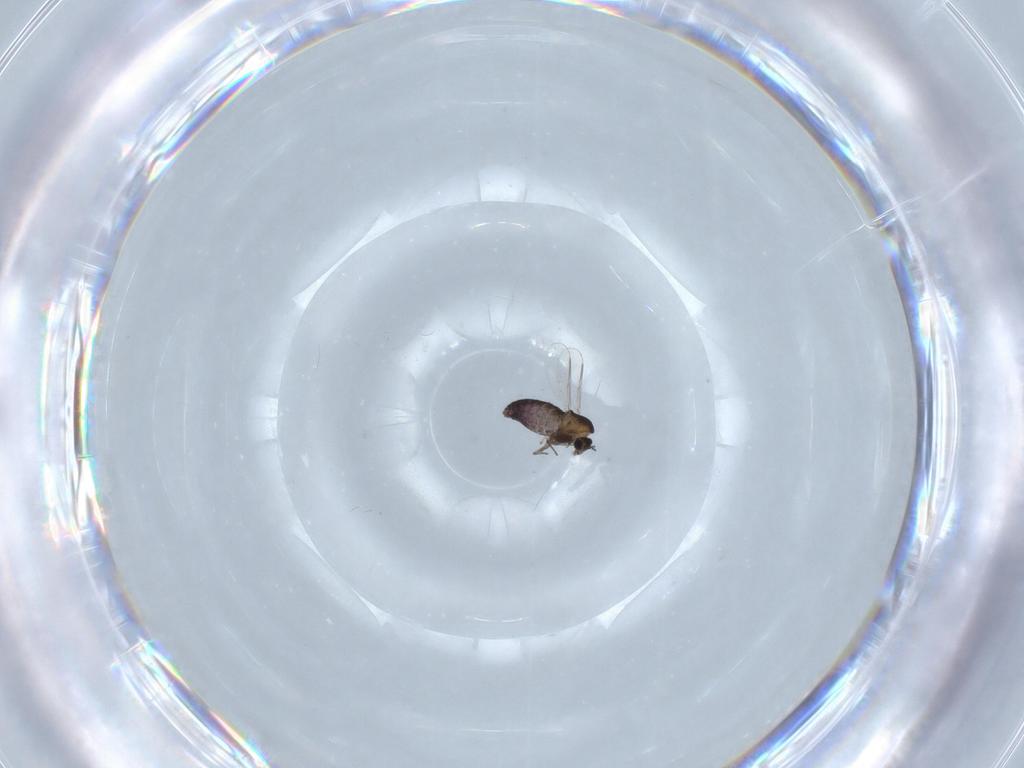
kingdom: Animalia
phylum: Arthropoda
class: Insecta
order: Diptera
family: Chironomidae
